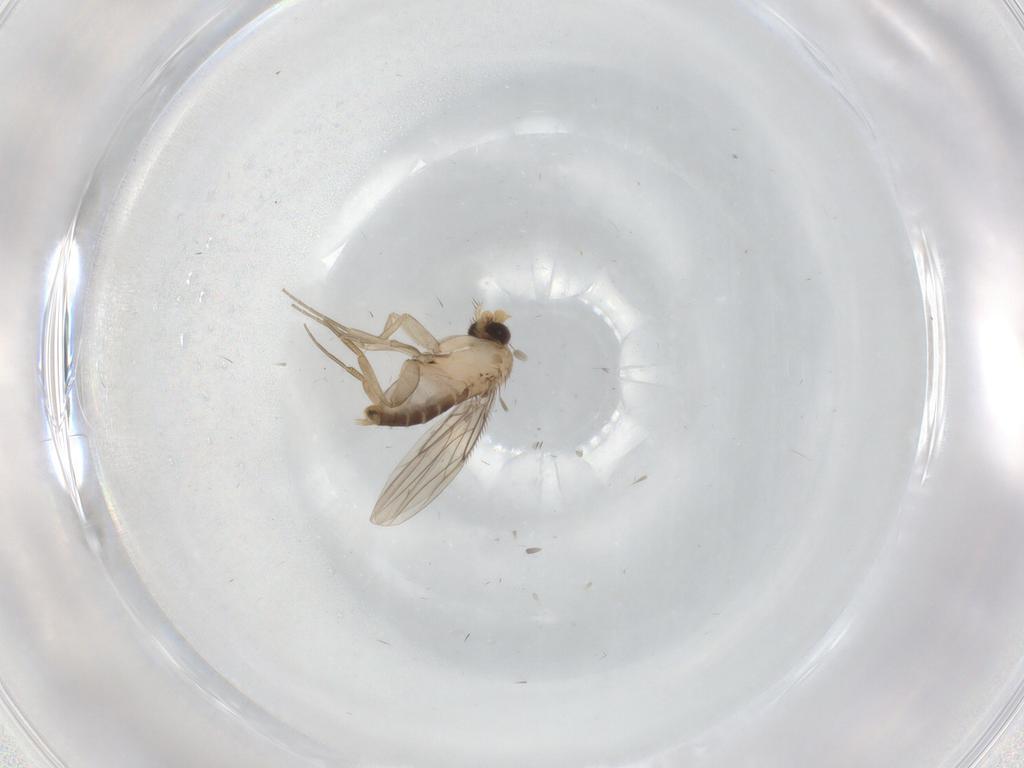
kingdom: Animalia
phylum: Arthropoda
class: Insecta
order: Diptera
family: Phoridae
